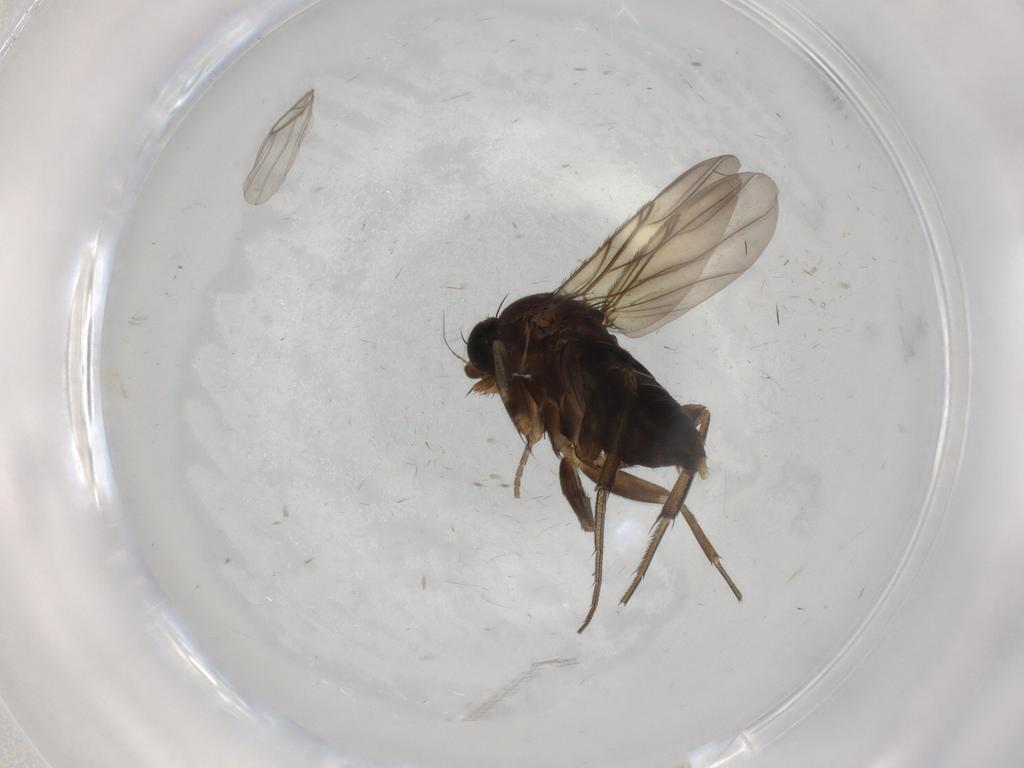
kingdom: Animalia
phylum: Arthropoda
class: Insecta
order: Diptera
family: Phoridae
